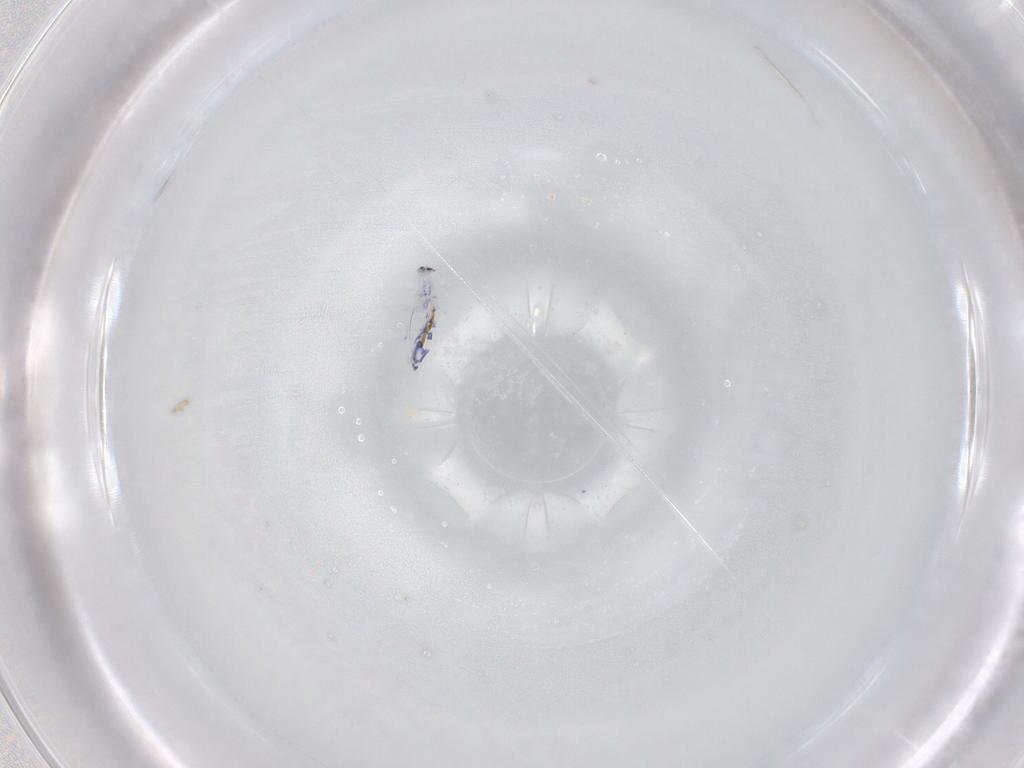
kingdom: Animalia
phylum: Arthropoda
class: Collembola
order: Entomobryomorpha
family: Entomobryidae
